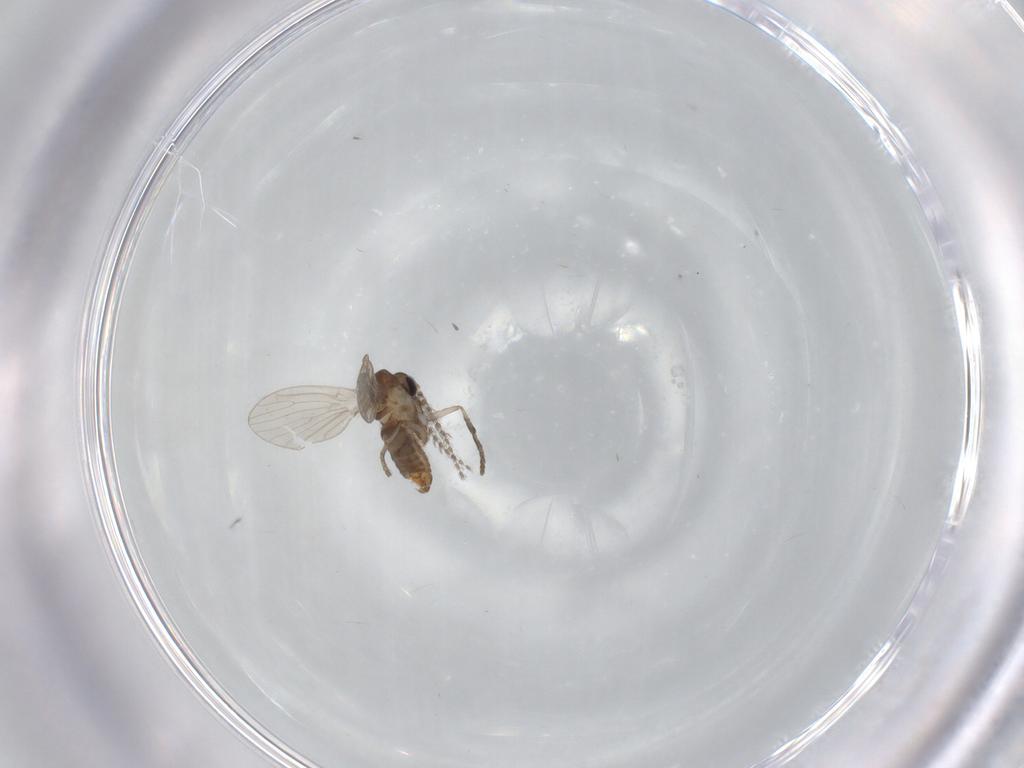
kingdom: Animalia
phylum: Arthropoda
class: Insecta
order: Diptera
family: Cecidomyiidae
